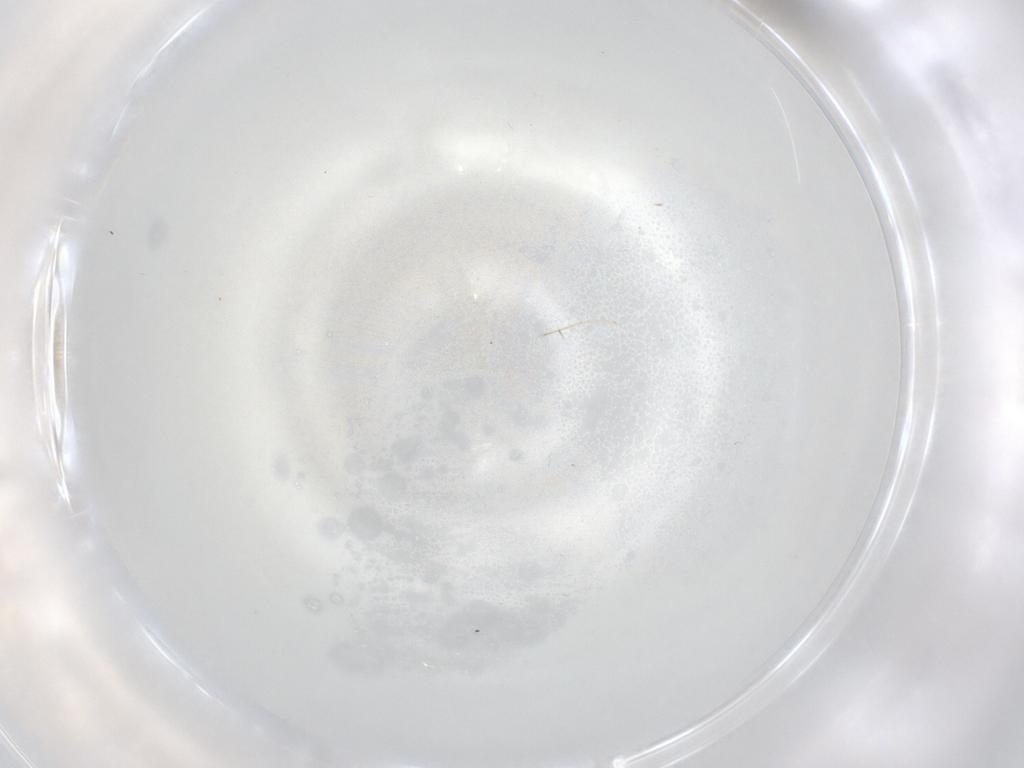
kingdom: Animalia
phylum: Arthropoda
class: Insecta
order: Diptera
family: Cecidomyiidae
